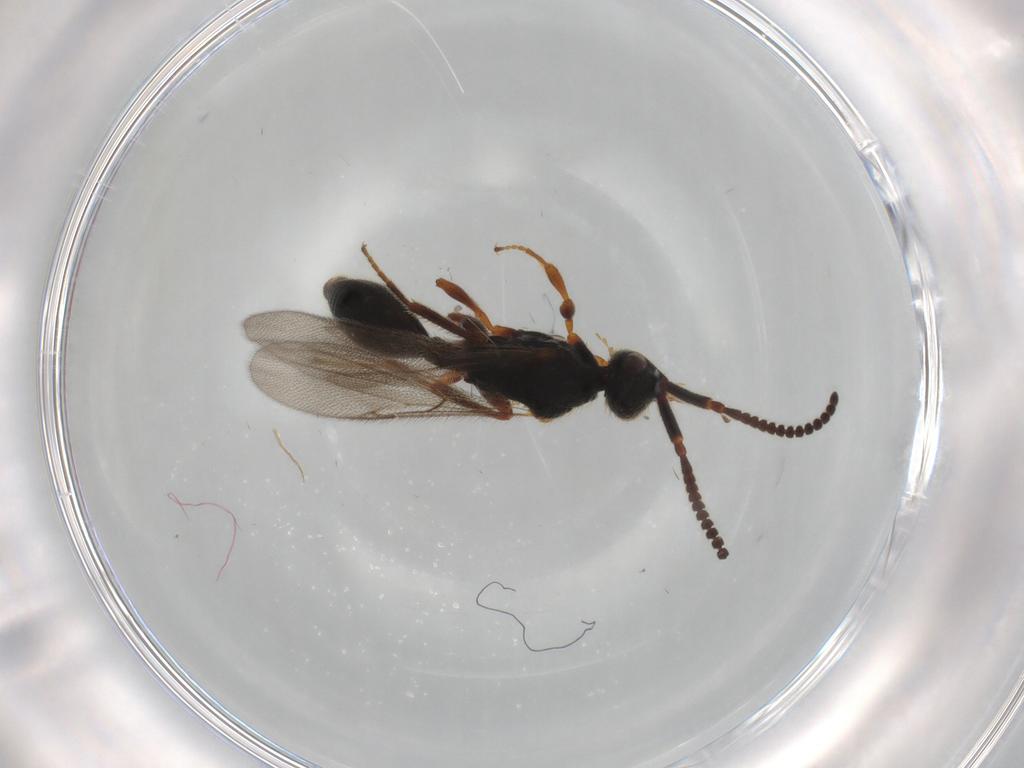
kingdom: Animalia
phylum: Arthropoda
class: Insecta
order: Hymenoptera
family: Diapriidae
